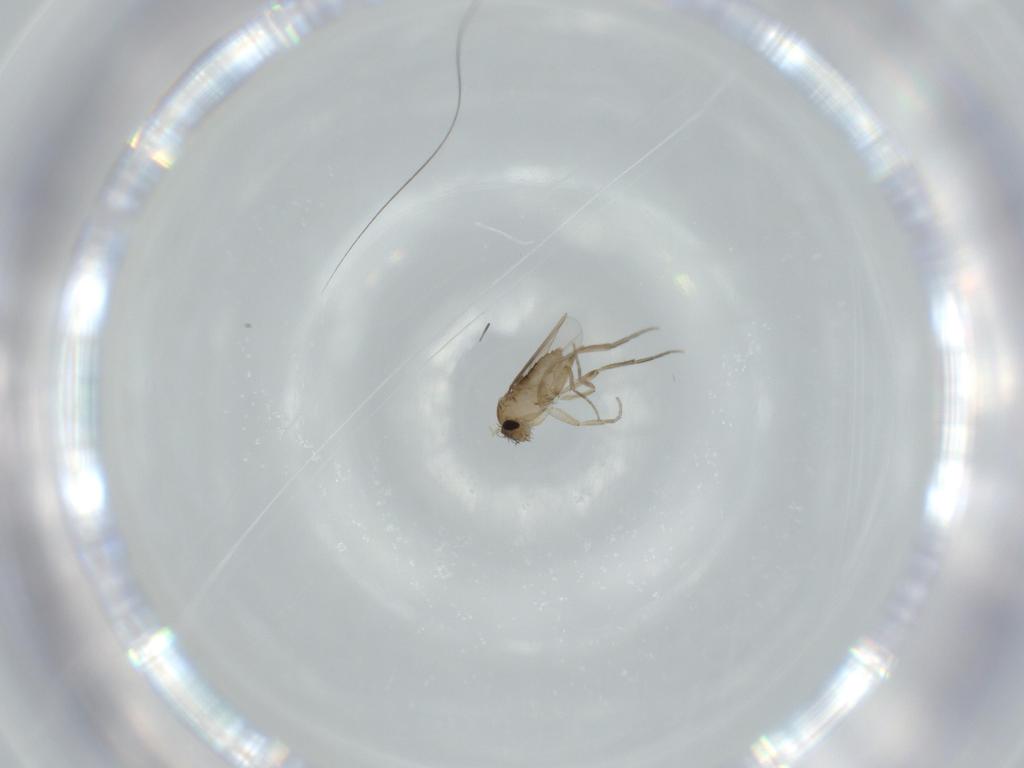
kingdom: Animalia
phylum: Arthropoda
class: Insecta
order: Diptera
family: Phoridae
